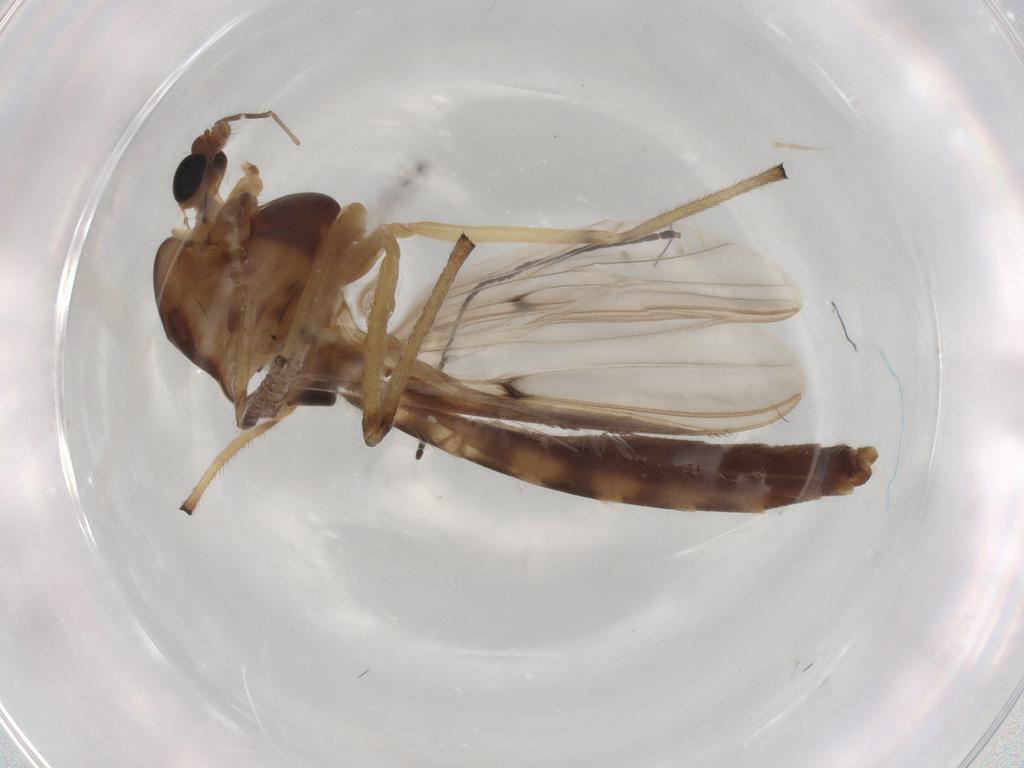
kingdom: Animalia
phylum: Arthropoda
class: Insecta
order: Diptera
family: Chironomidae
